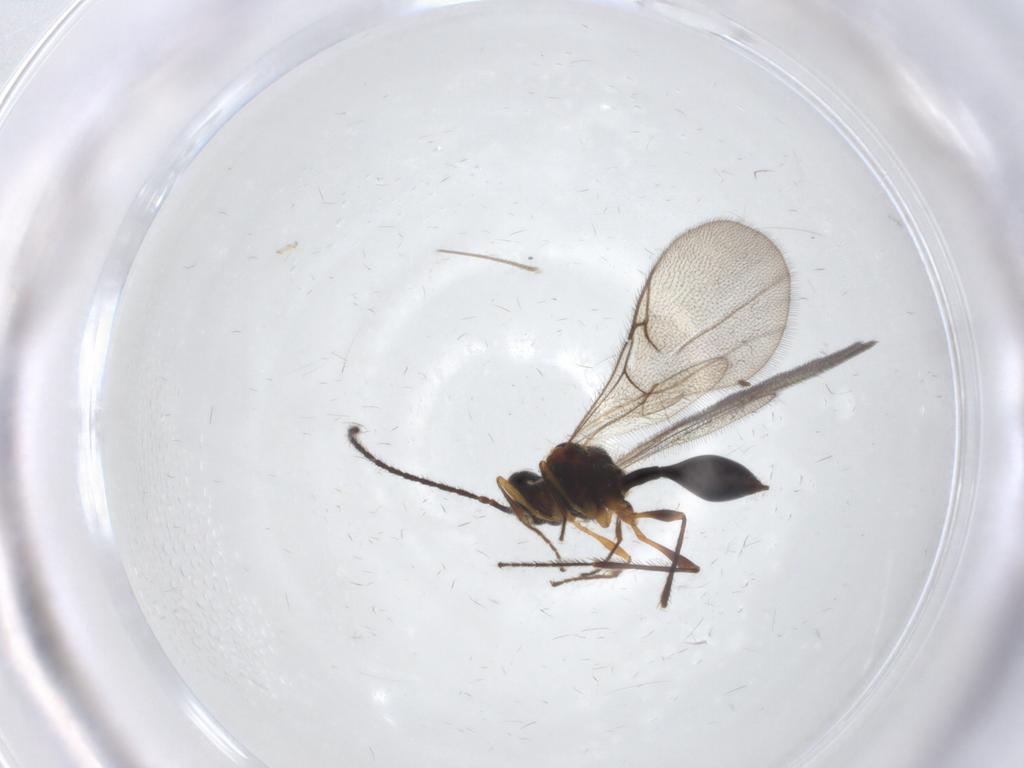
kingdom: Animalia
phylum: Arthropoda
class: Insecta
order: Hymenoptera
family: Diapriidae
